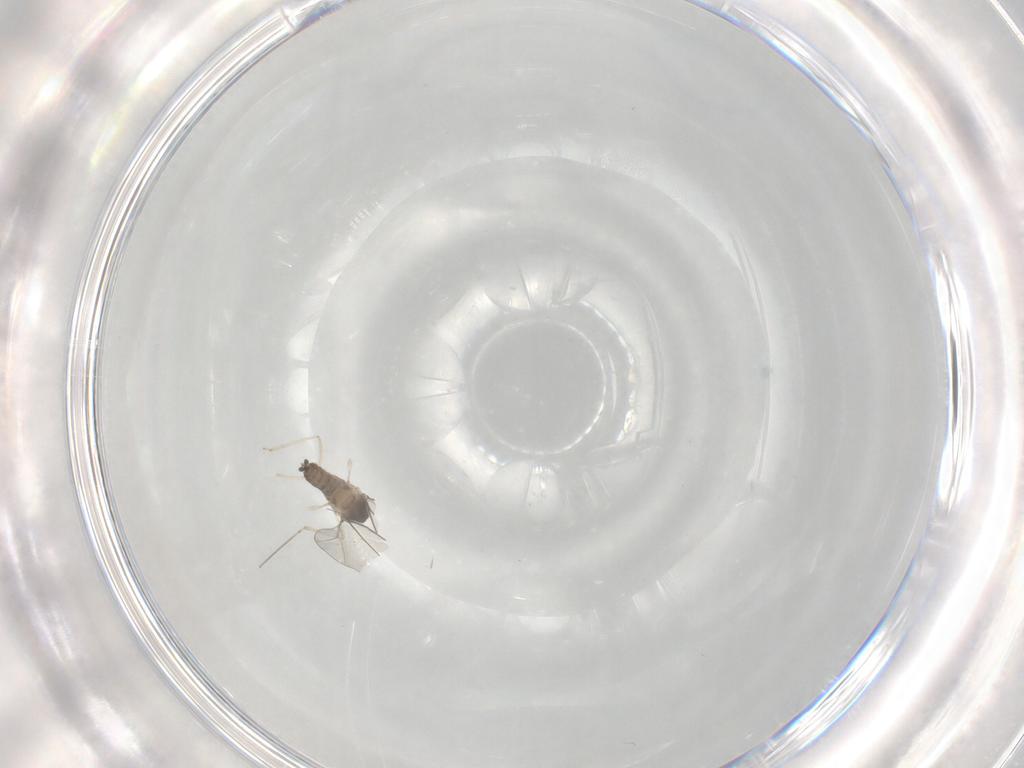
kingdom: Animalia
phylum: Arthropoda
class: Insecta
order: Diptera
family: Cecidomyiidae
